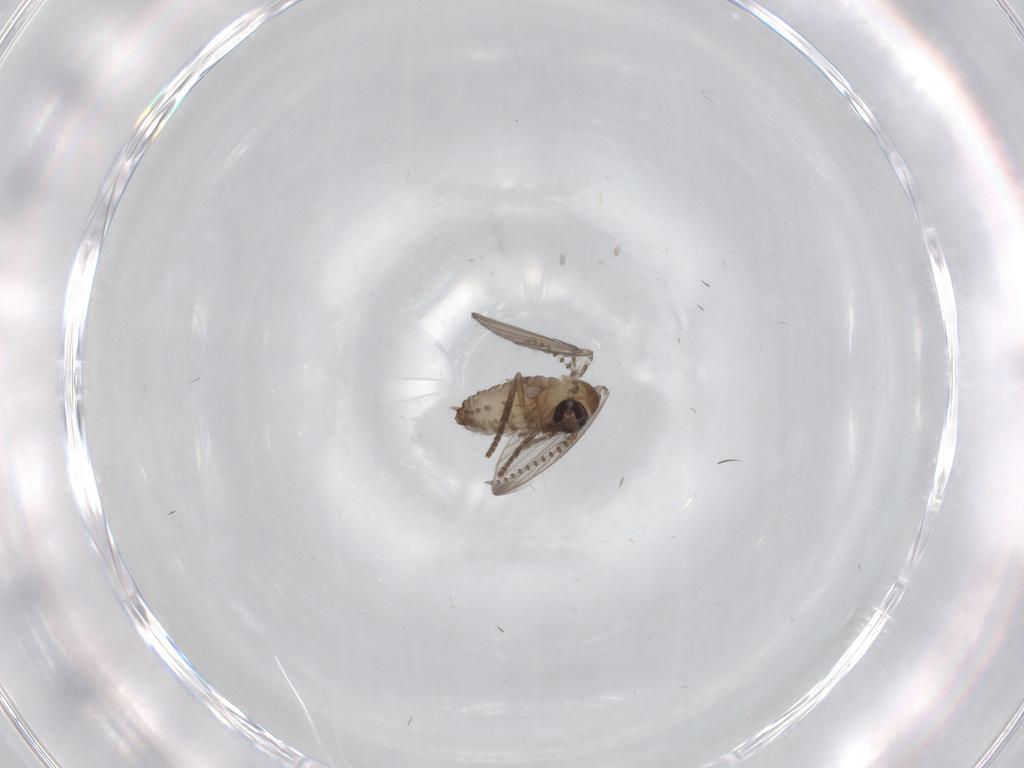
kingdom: Animalia
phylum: Arthropoda
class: Insecta
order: Diptera
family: Psychodidae
